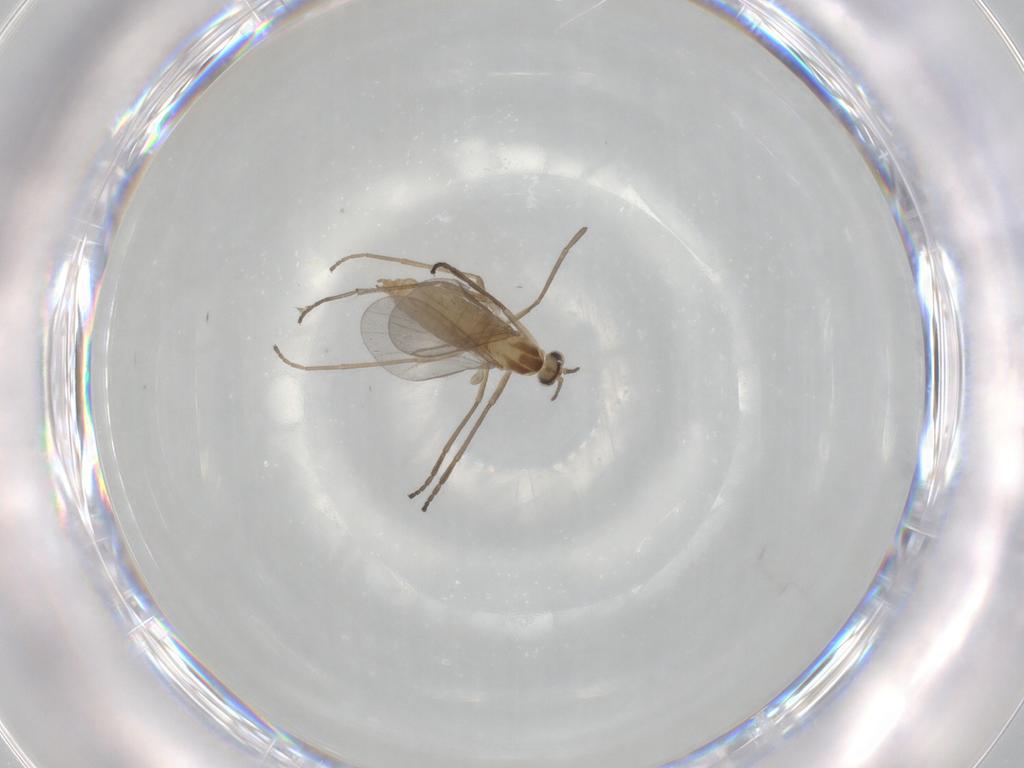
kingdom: Animalia
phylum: Arthropoda
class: Insecta
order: Diptera
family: Cecidomyiidae
